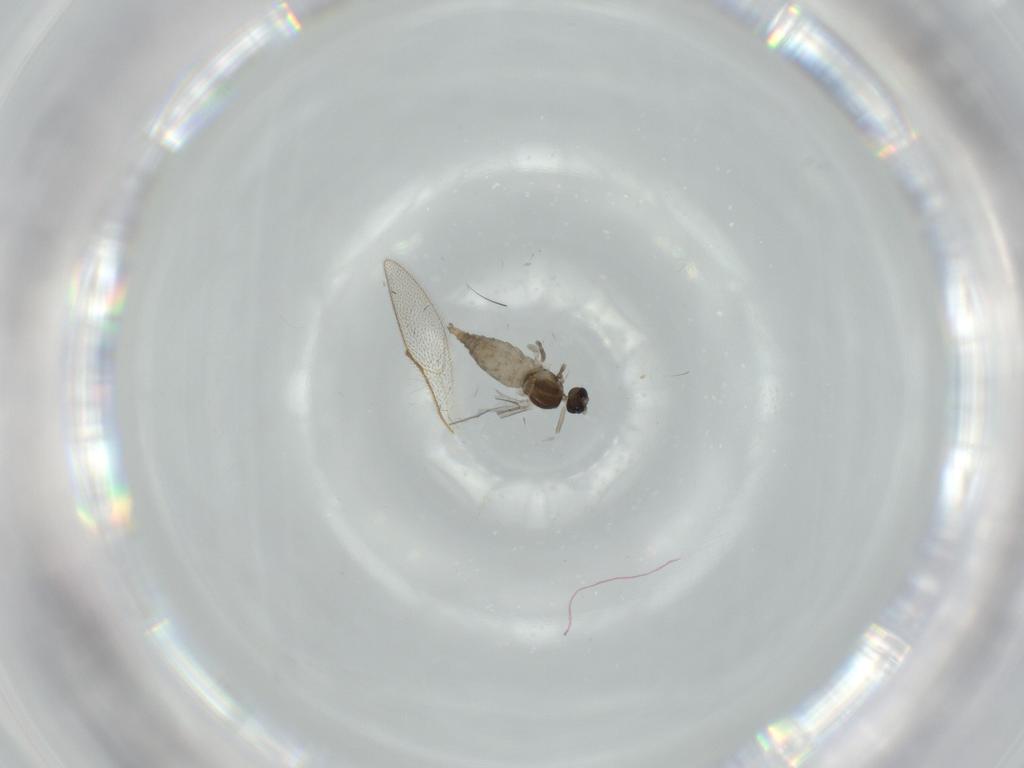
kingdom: Animalia
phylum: Arthropoda
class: Insecta
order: Diptera
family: Cecidomyiidae
